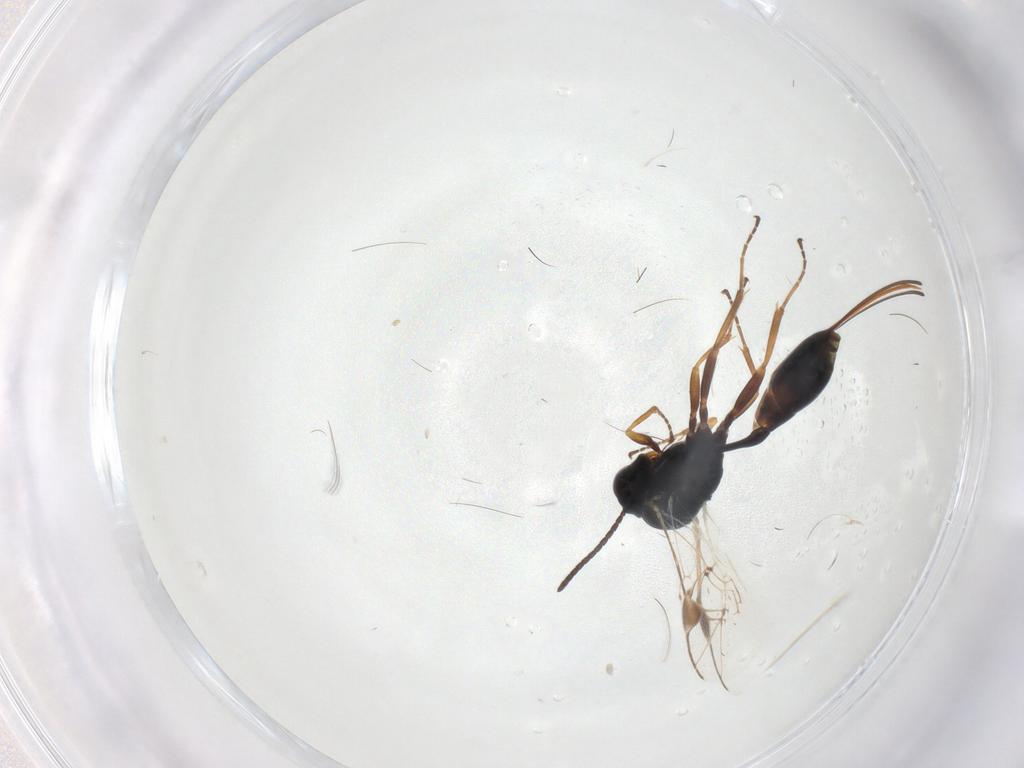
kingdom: Animalia
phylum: Arthropoda
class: Insecta
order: Hymenoptera
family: Ichneumonidae
